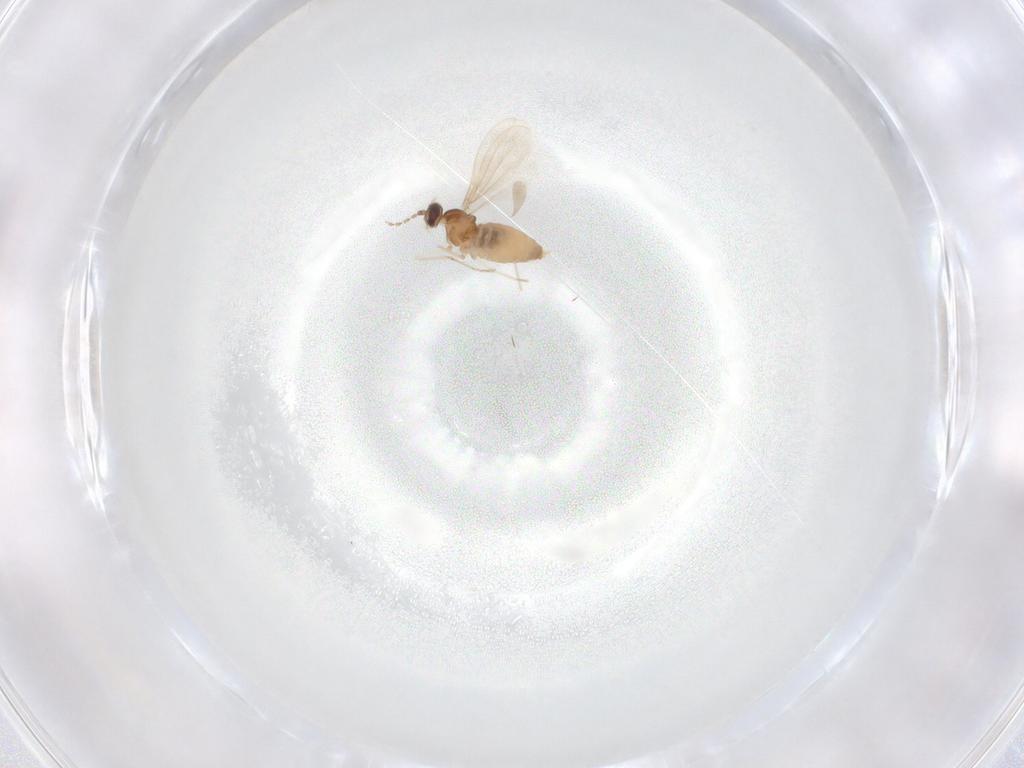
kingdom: Animalia
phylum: Arthropoda
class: Insecta
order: Diptera
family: Cecidomyiidae
